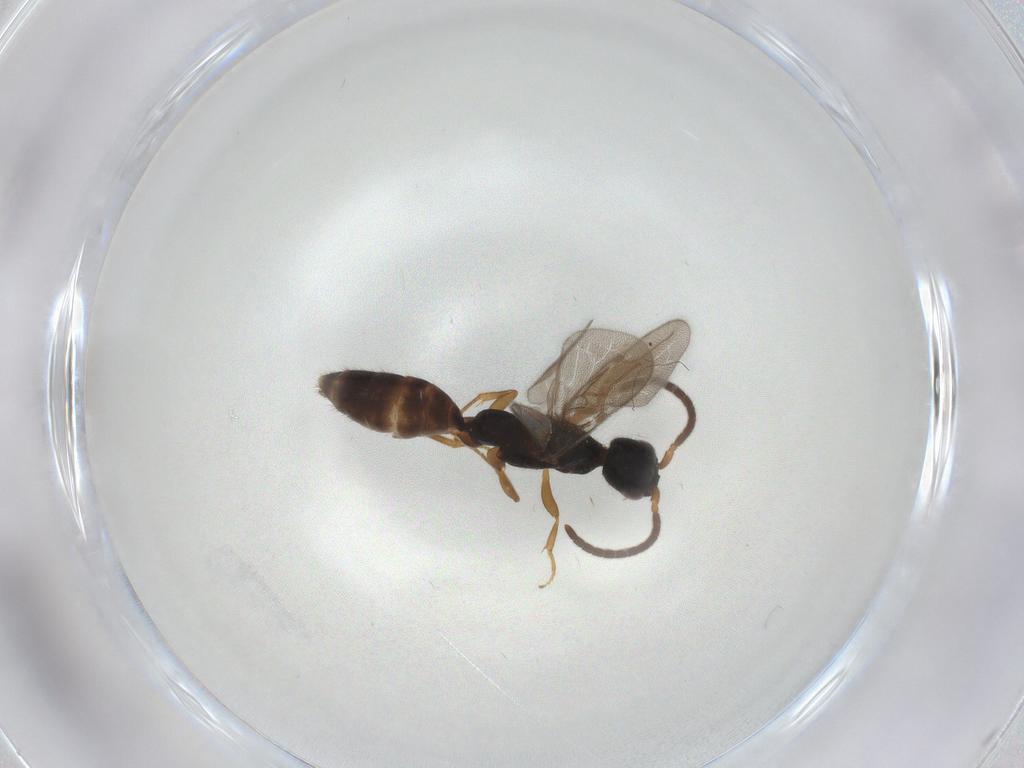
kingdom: Animalia
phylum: Arthropoda
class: Insecta
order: Hymenoptera
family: Bethylidae
